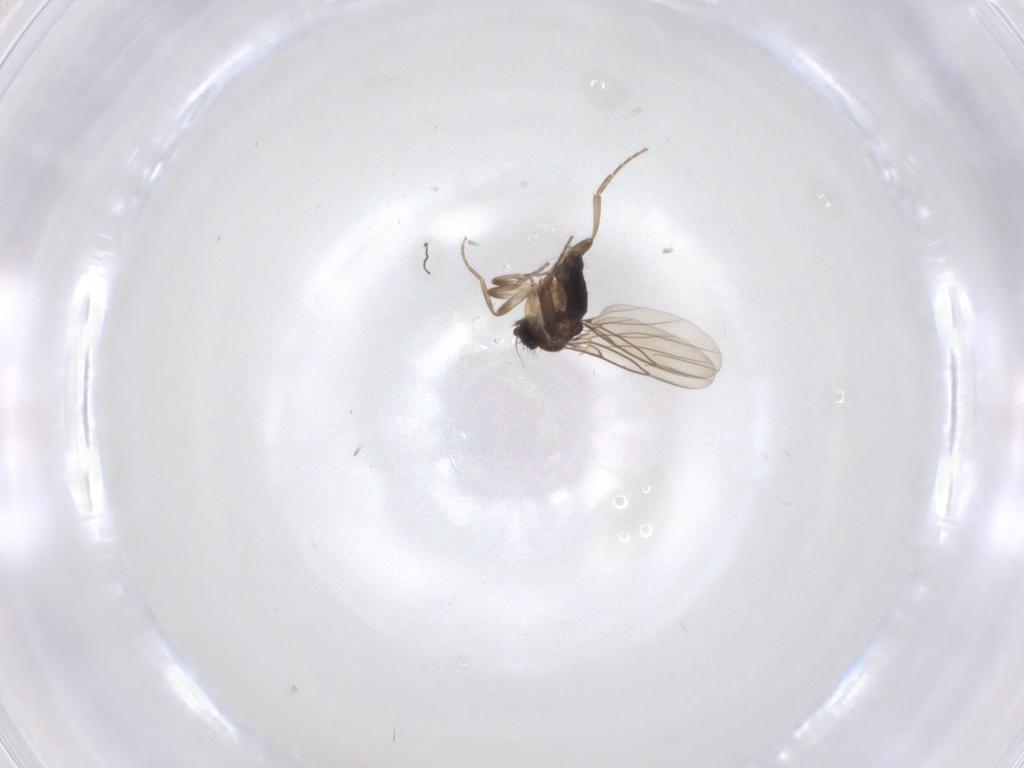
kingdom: Animalia
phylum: Arthropoda
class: Insecta
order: Diptera
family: Phoridae
